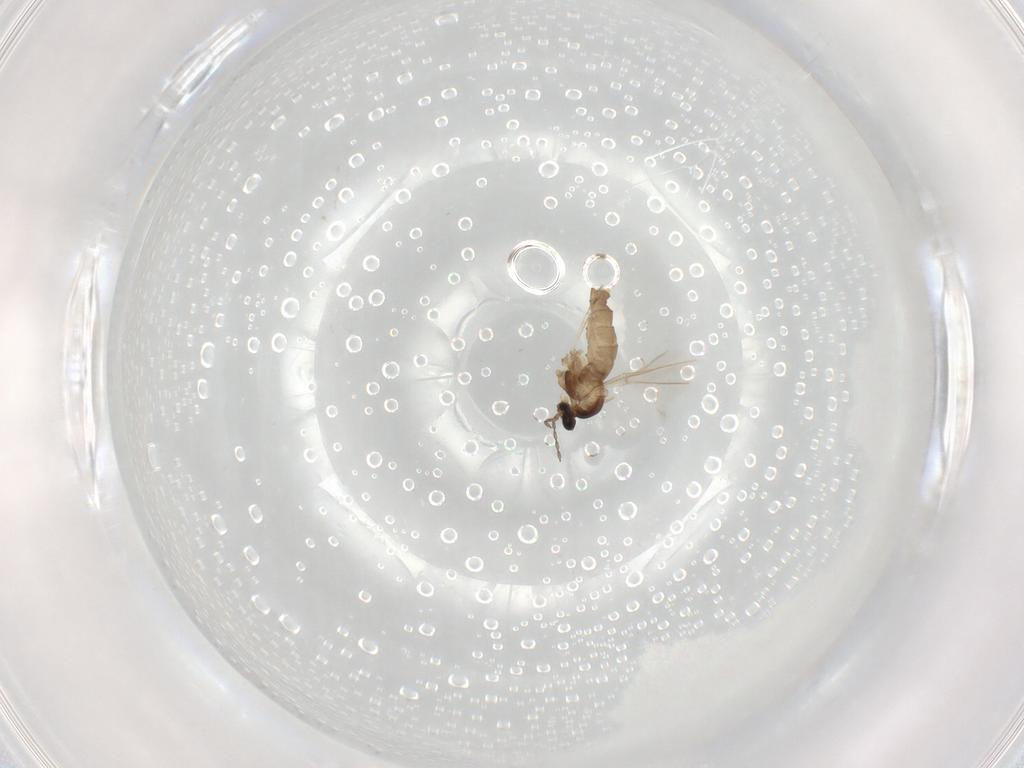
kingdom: Animalia
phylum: Arthropoda
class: Insecta
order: Diptera
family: Cecidomyiidae
